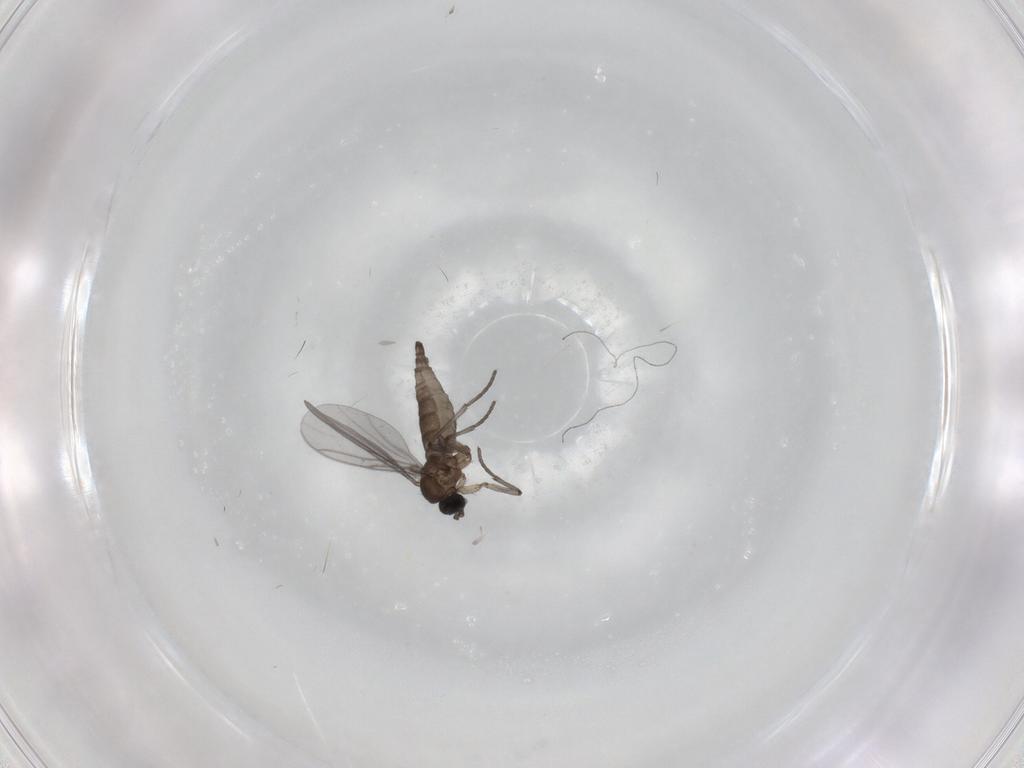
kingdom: Animalia
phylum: Arthropoda
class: Insecta
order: Diptera
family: Sciaridae
